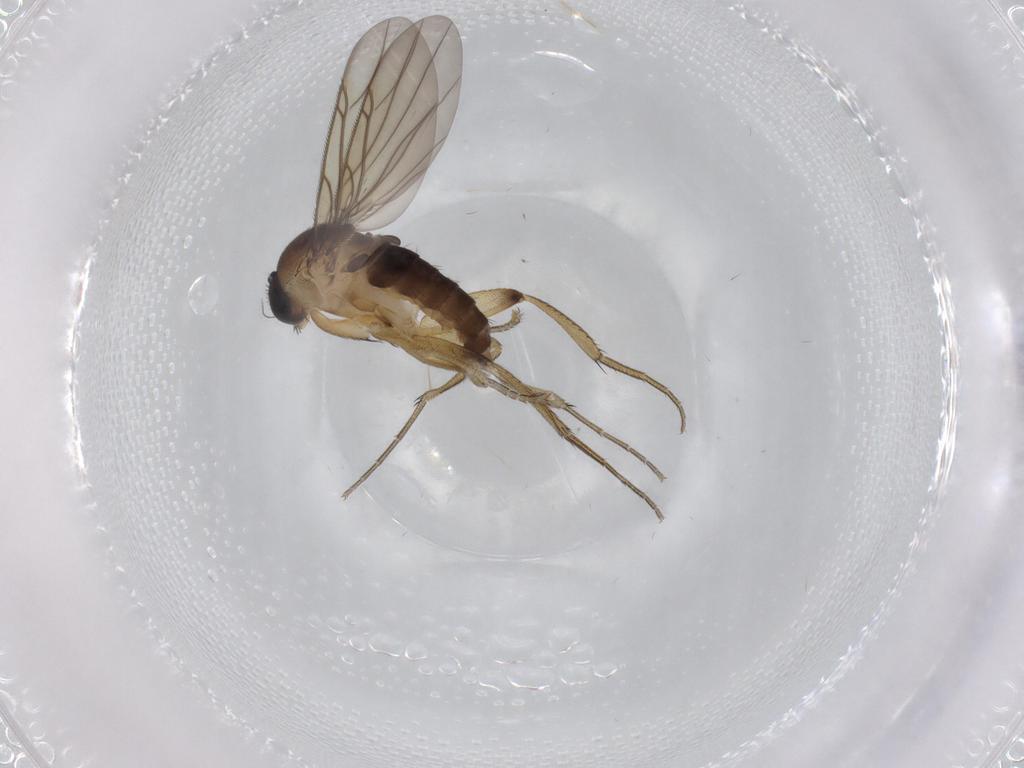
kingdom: Animalia
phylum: Arthropoda
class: Insecta
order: Diptera
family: Phoridae
